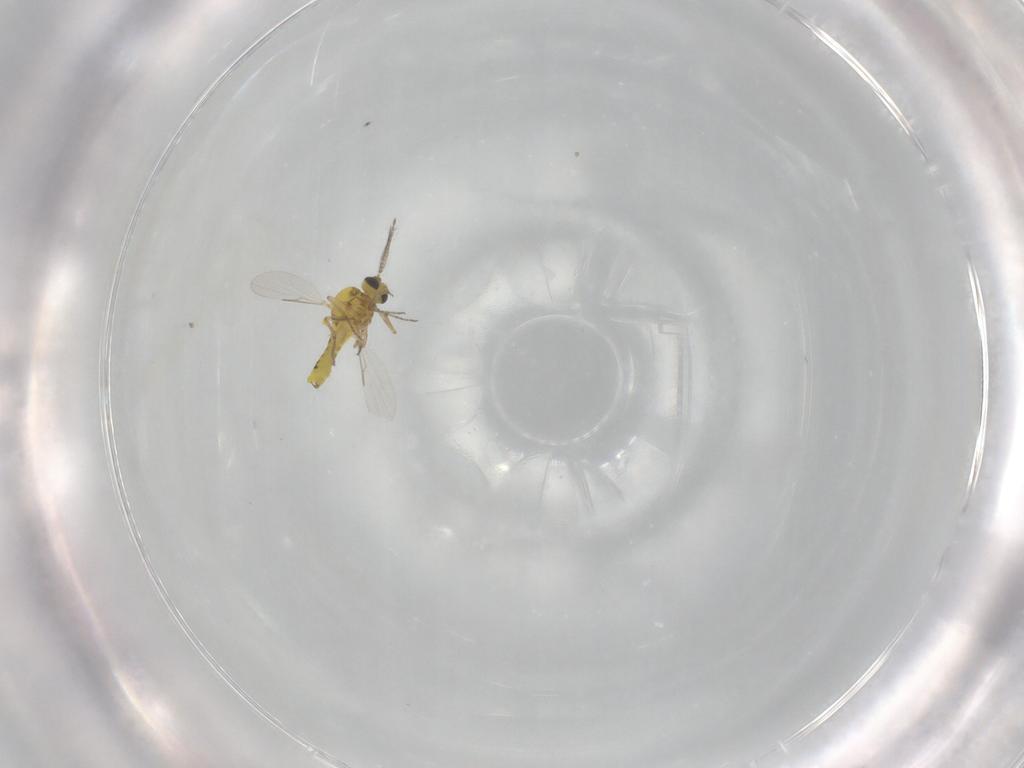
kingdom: Animalia
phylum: Arthropoda
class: Insecta
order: Diptera
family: Ceratopogonidae
